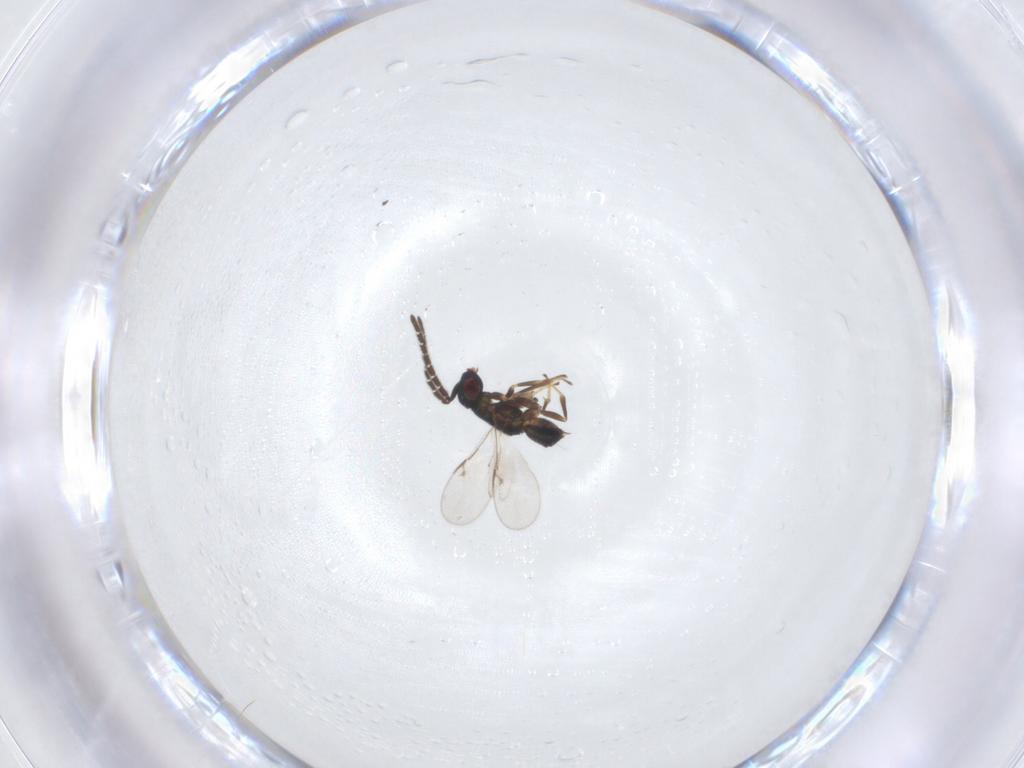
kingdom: Animalia
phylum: Arthropoda
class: Insecta
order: Hymenoptera
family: Encyrtidae
